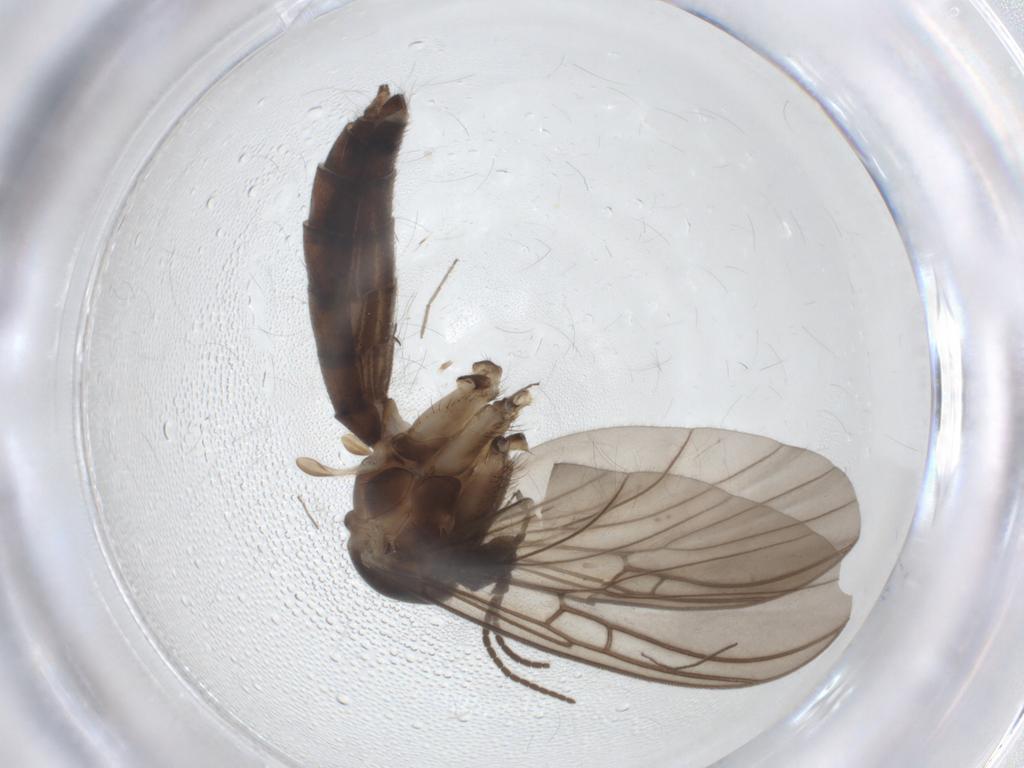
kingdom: Animalia
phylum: Arthropoda
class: Insecta
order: Diptera
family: Mycetophilidae
